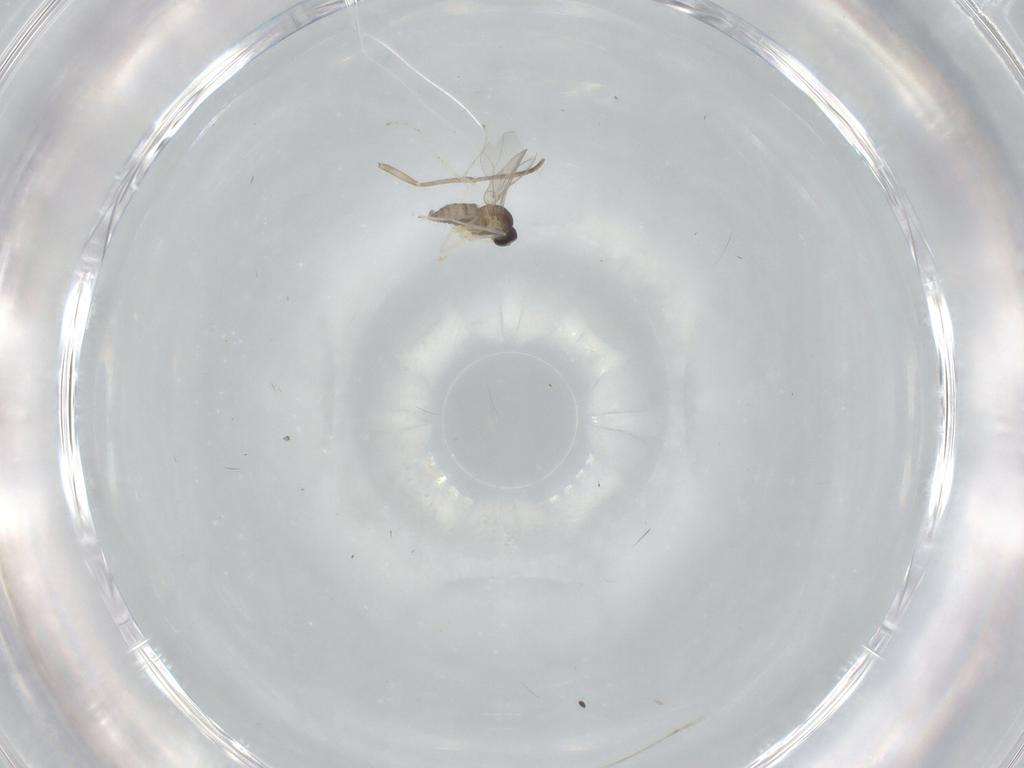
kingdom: Animalia
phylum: Arthropoda
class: Insecta
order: Diptera
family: Cecidomyiidae
